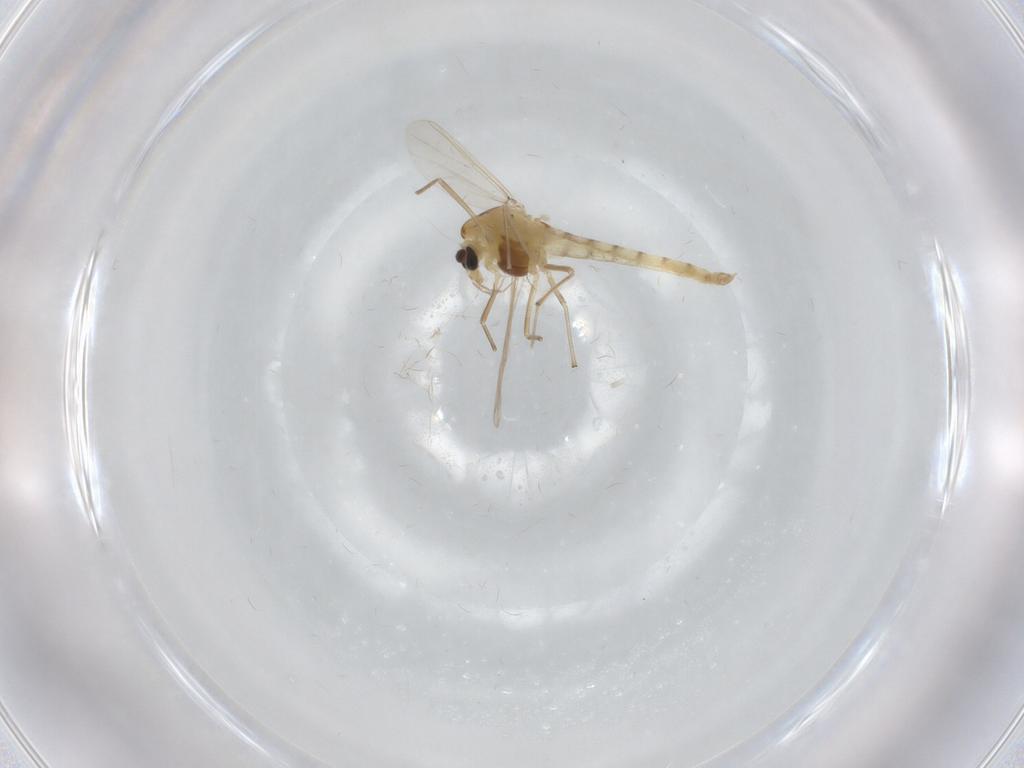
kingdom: Animalia
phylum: Arthropoda
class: Insecta
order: Diptera
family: Chironomidae
